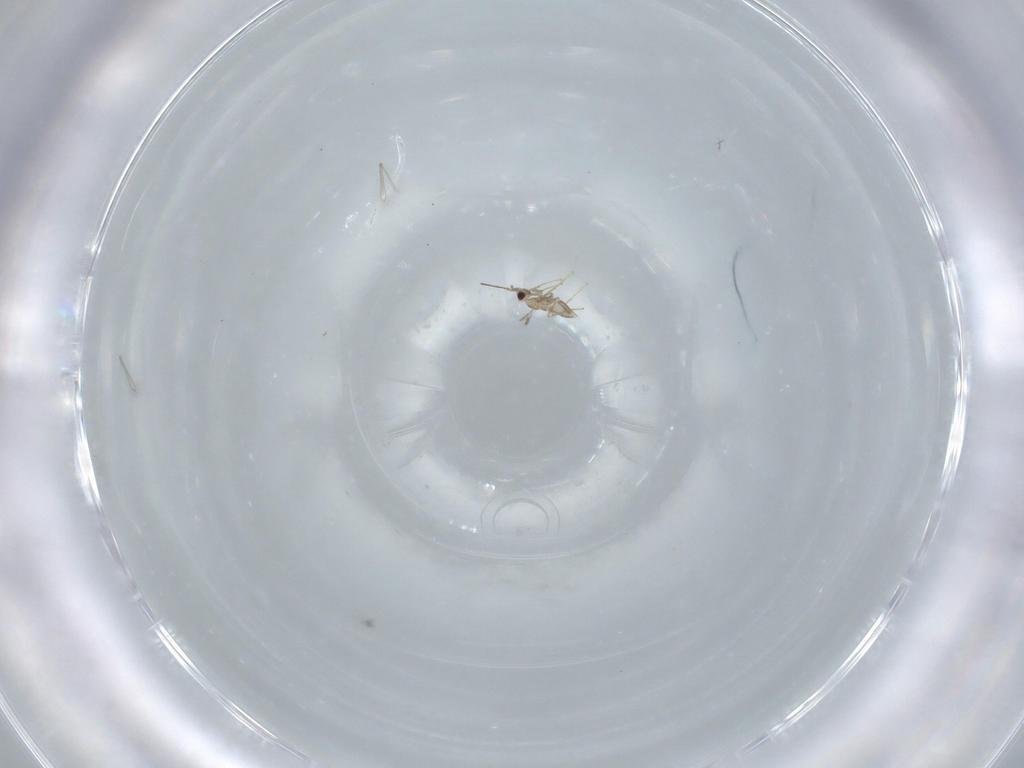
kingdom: Animalia
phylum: Arthropoda
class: Insecta
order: Hymenoptera
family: Mymaridae
